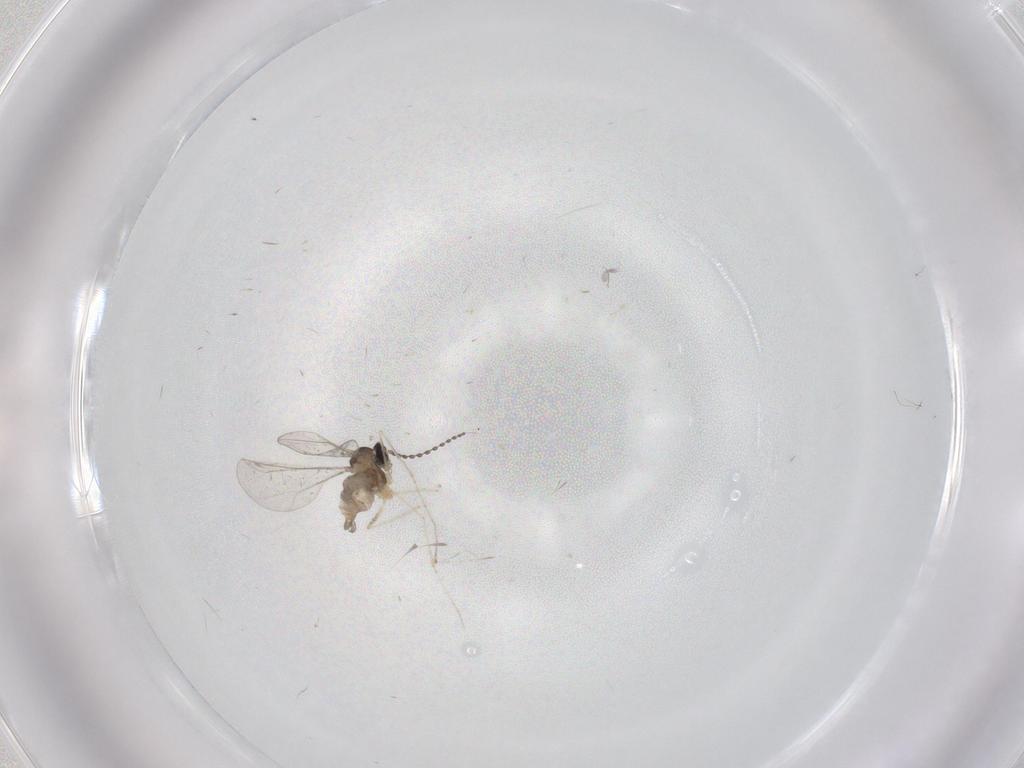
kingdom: Animalia
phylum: Arthropoda
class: Insecta
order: Diptera
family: Cecidomyiidae
